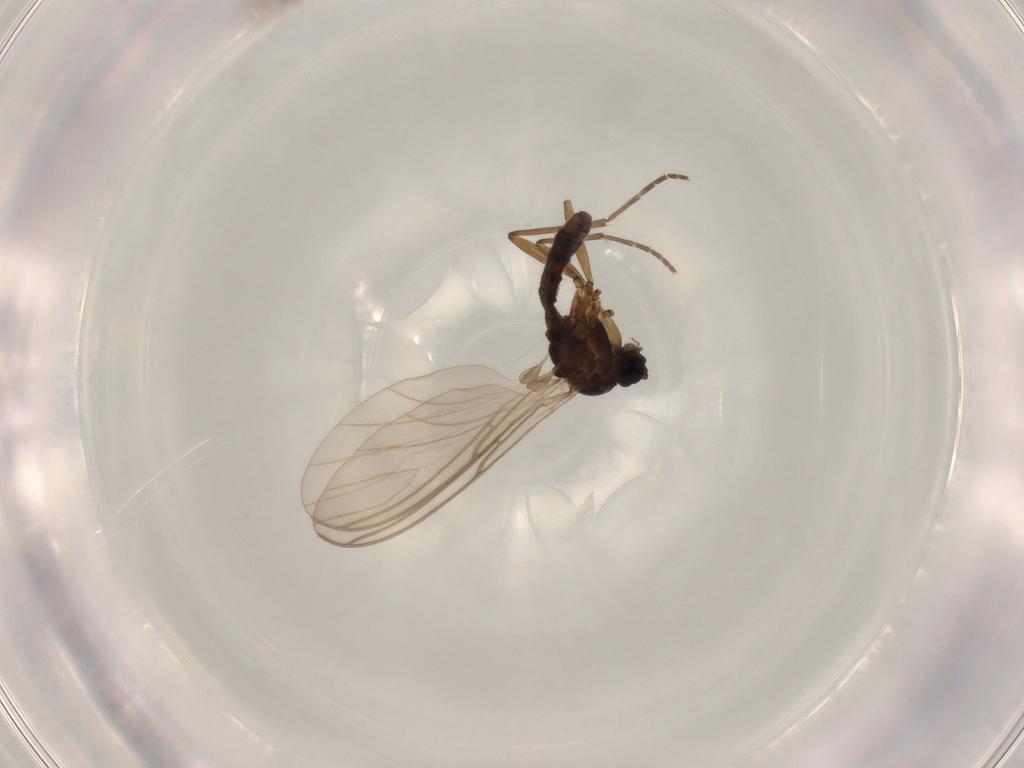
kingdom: Animalia
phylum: Arthropoda
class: Insecta
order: Diptera
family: Sciaridae
